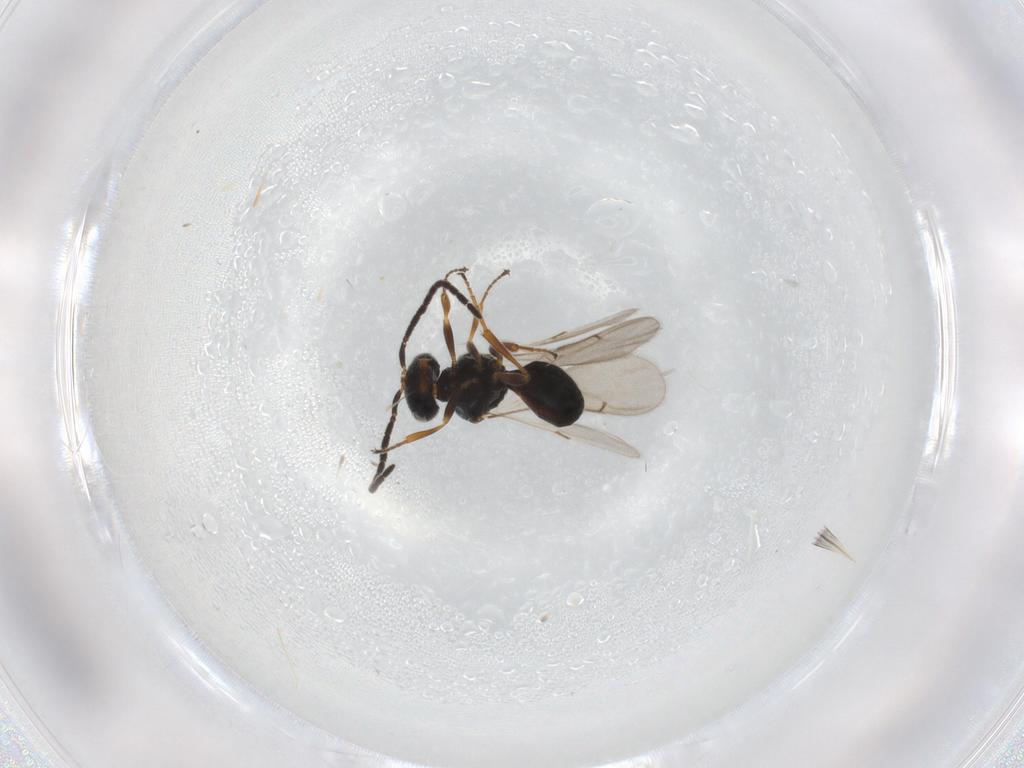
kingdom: Animalia
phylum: Arthropoda
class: Insecta
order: Hymenoptera
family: Scelionidae
